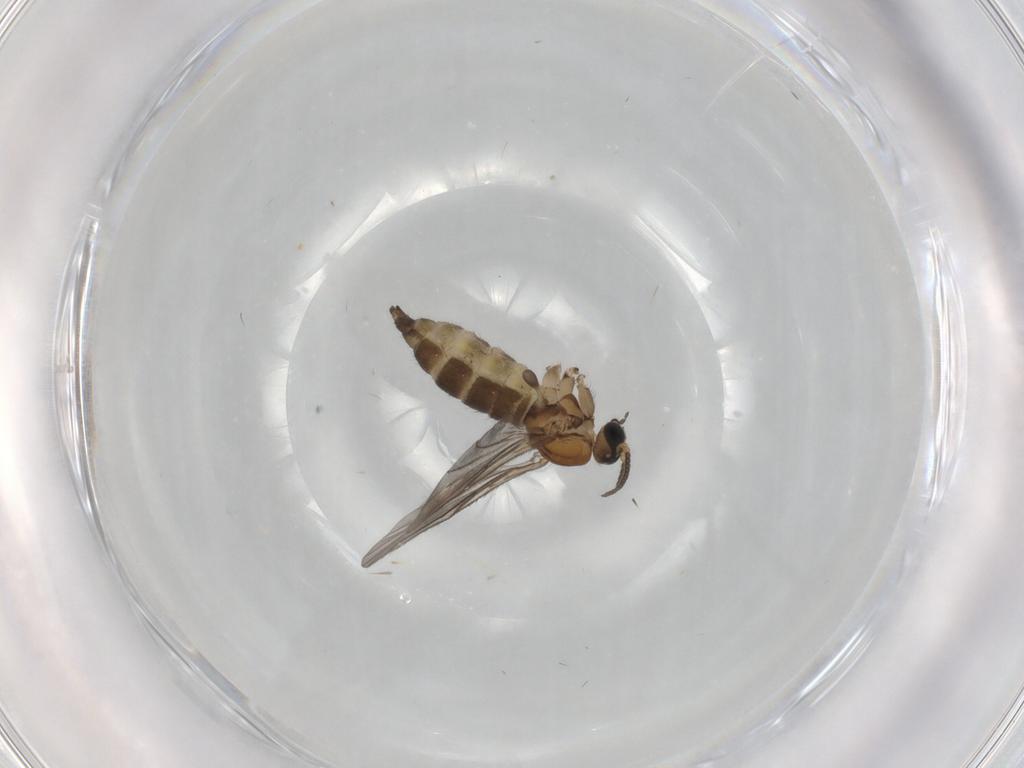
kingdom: Animalia
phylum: Arthropoda
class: Insecta
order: Diptera
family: Sciaridae
